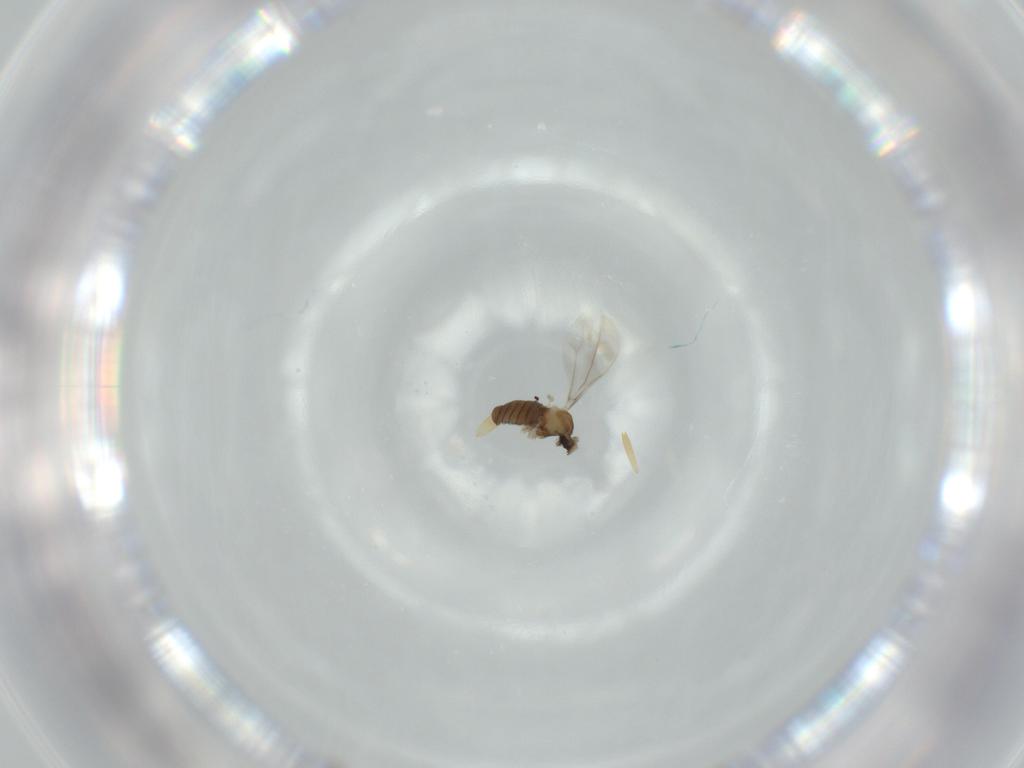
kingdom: Animalia
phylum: Arthropoda
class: Insecta
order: Diptera
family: Cecidomyiidae
